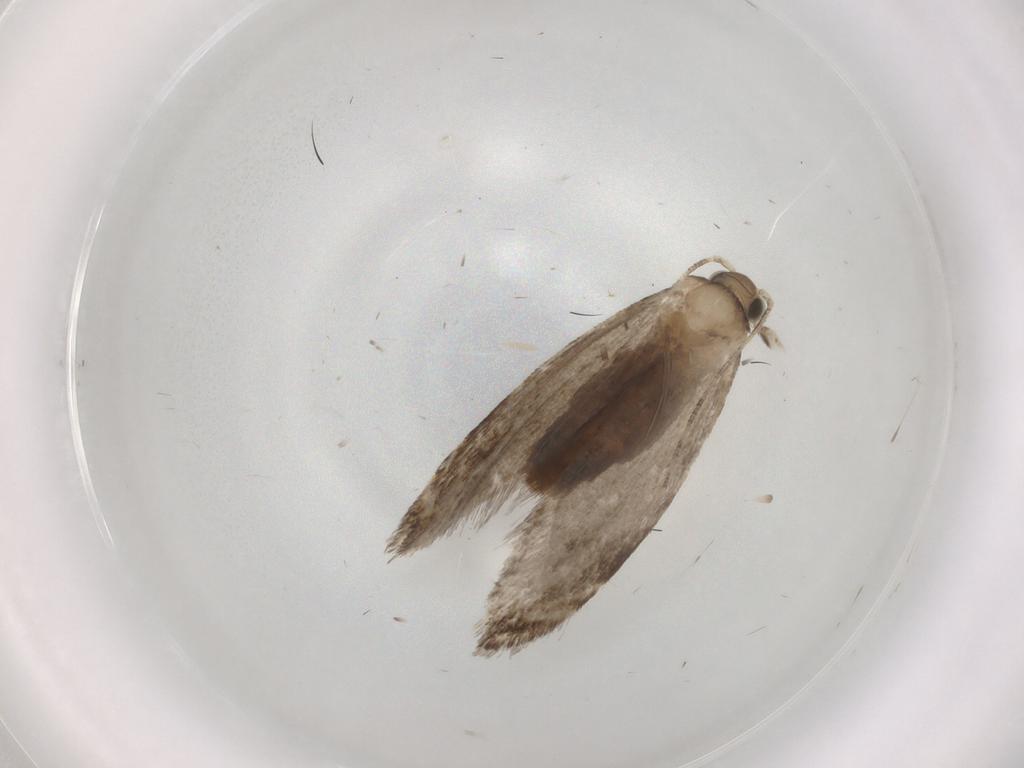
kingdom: Animalia
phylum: Arthropoda
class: Insecta
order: Lepidoptera
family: Tineidae
